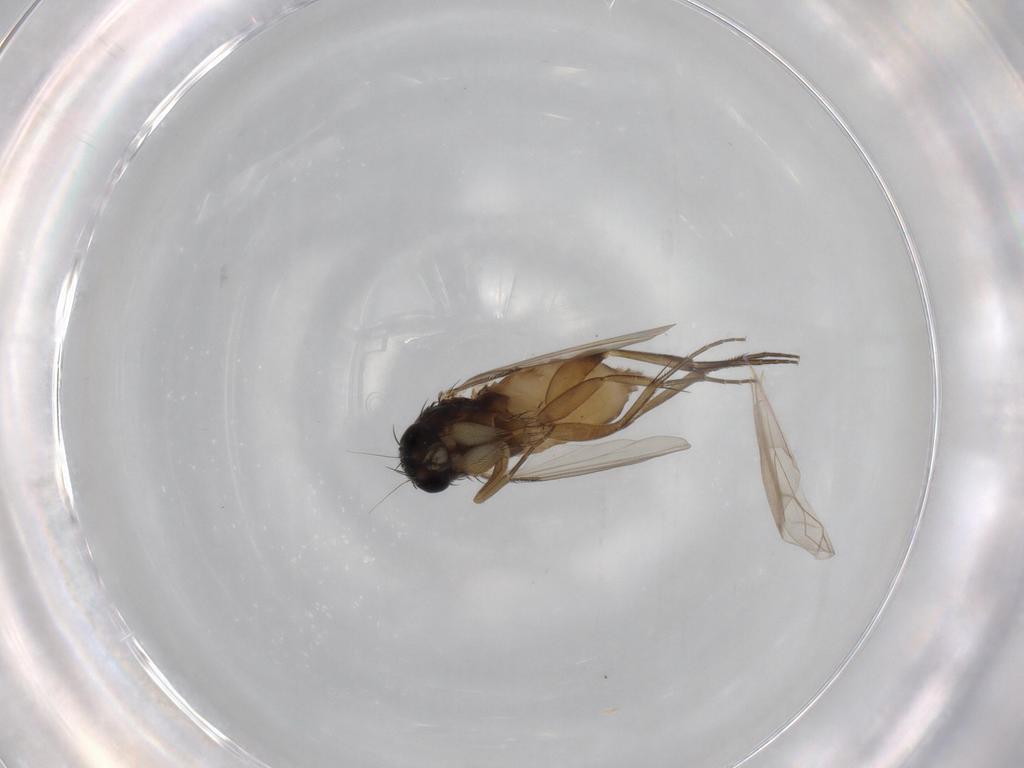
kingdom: Animalia
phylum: Arthropoda
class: Insecta
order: Diptera
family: Phoridae
